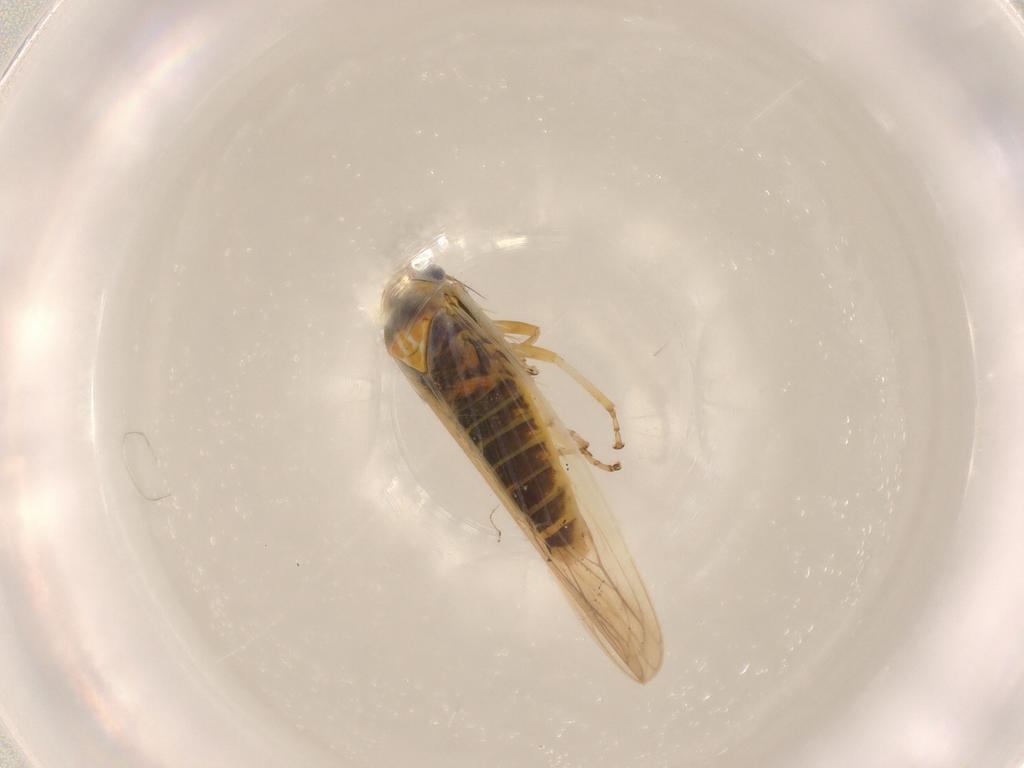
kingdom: Animalia
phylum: Arthropoda
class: Insecta
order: Hemiptera
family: Cicadellidae
